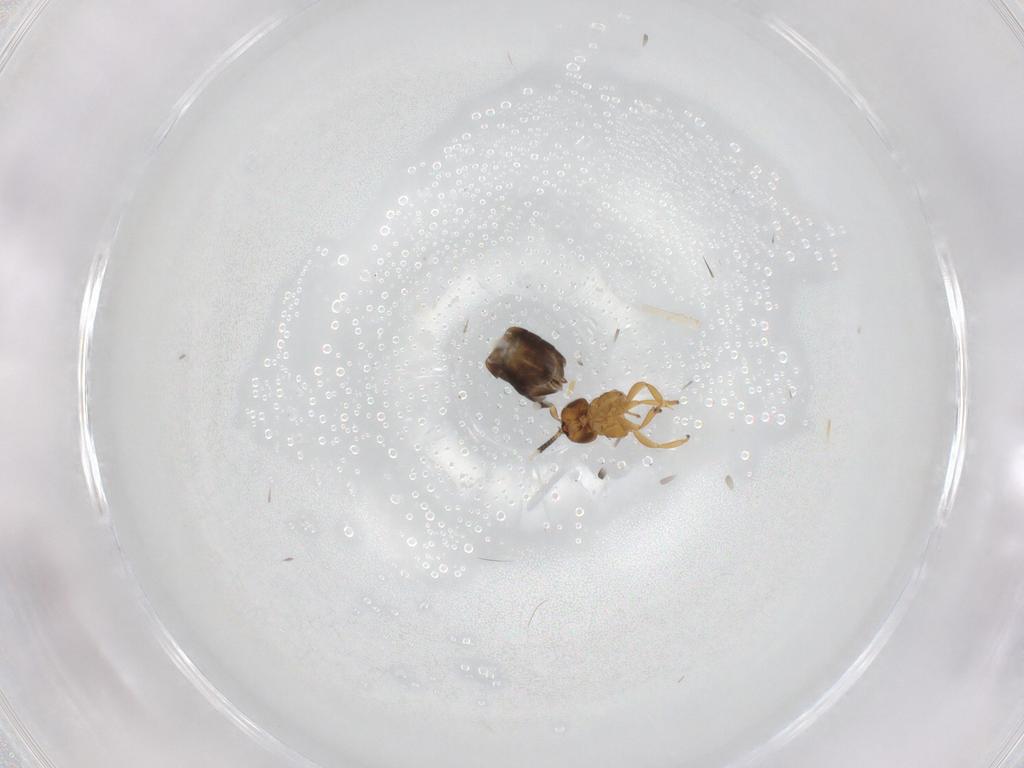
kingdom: Animalia
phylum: Arthropoda
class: Insecta
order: Hymenoptera
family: Encyrtidae
